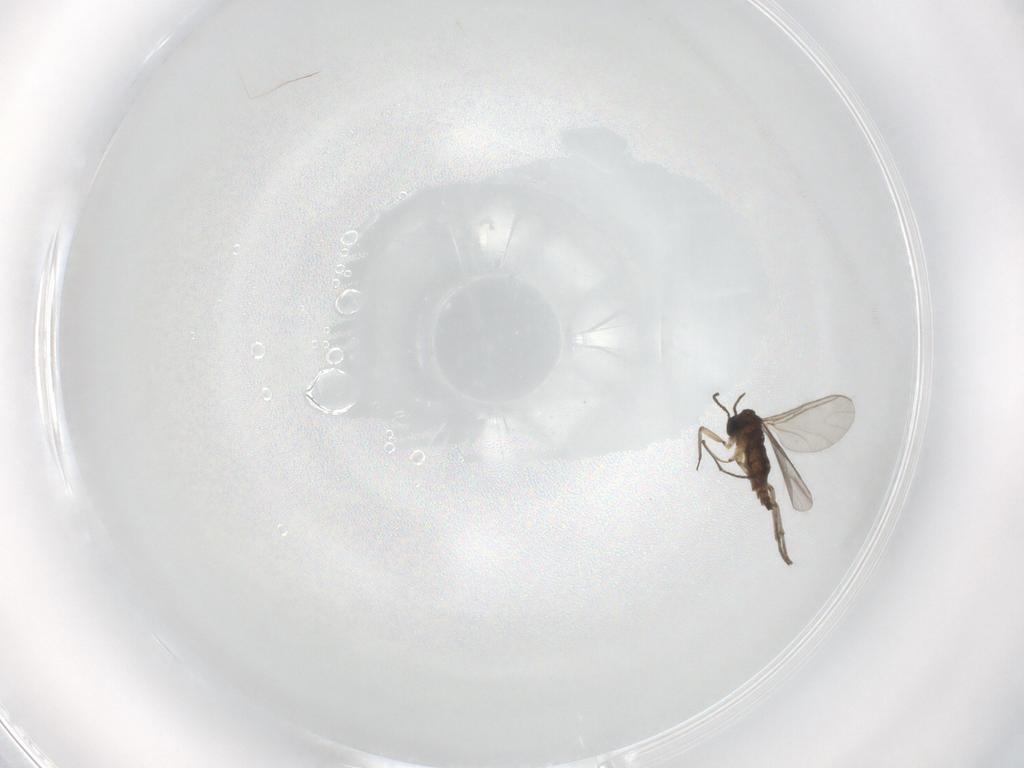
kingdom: Animalia
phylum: Arthropoda
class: Insecta
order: Diptera
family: Sciaridae
